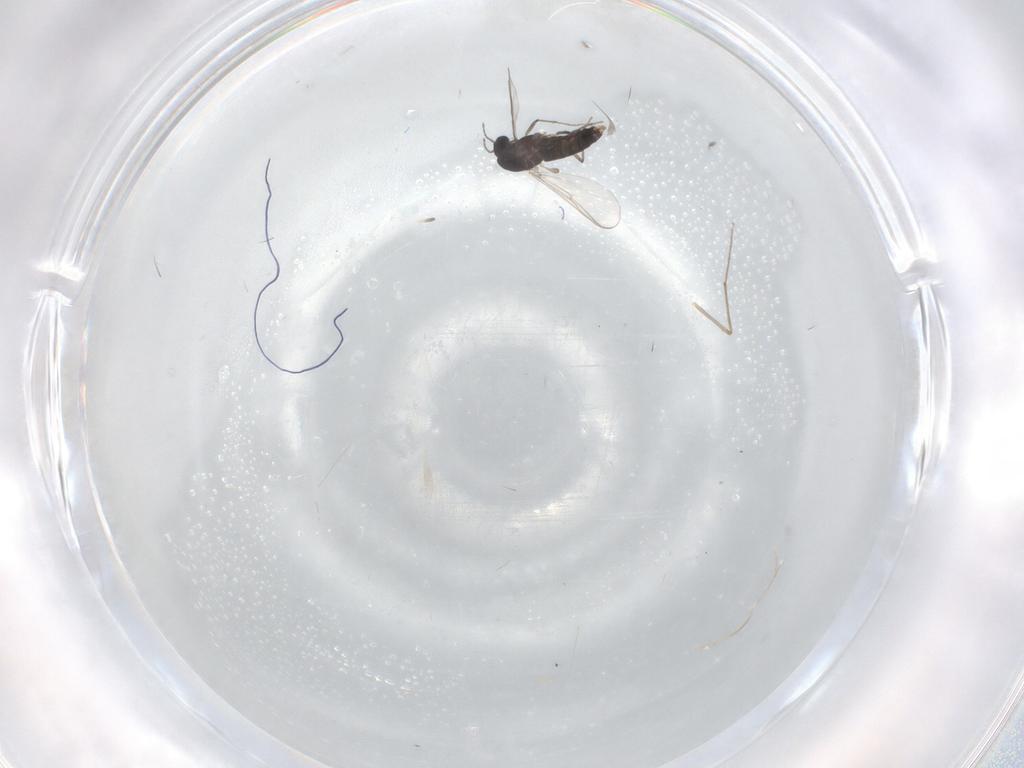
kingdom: Animalia
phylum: Arthropoda
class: Insecta
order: Diptera
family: Chironomidae
